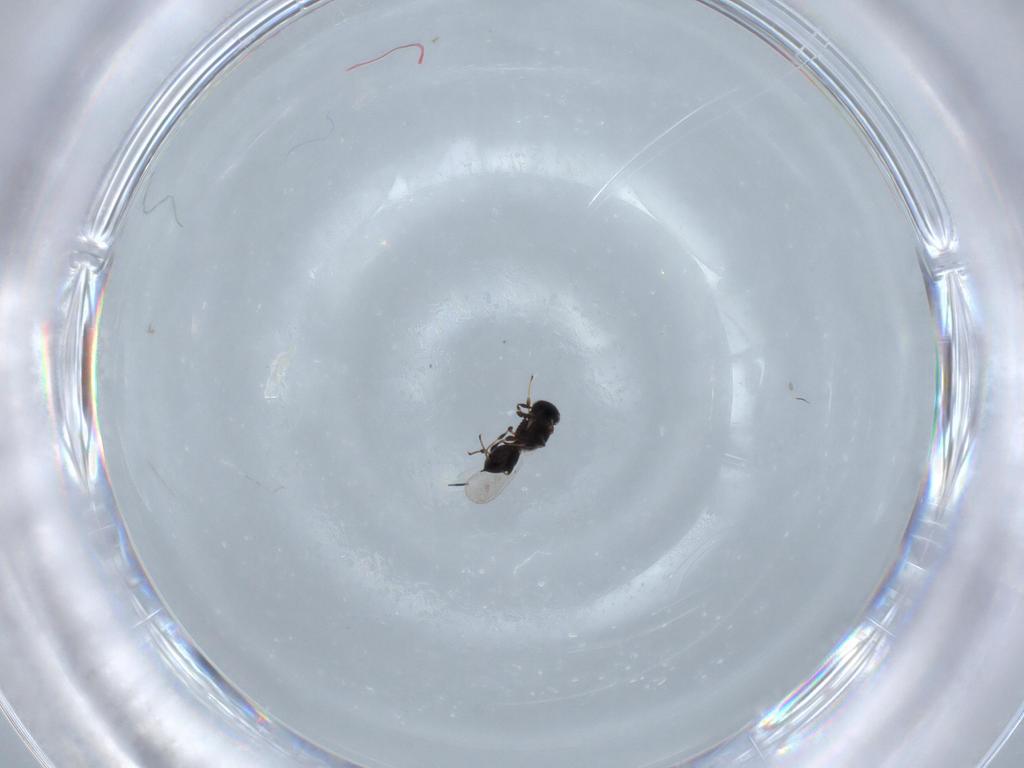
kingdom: Animalia
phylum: Arthropoda
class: Insecta
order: Hymenoptera
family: Platygastridae
